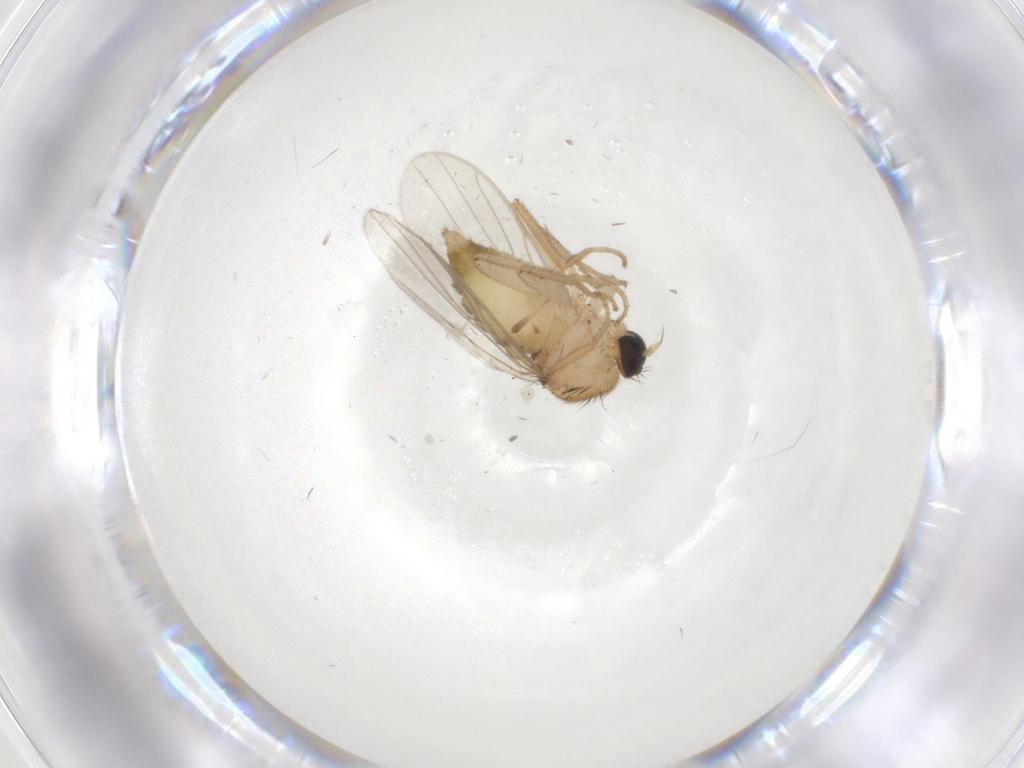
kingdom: Animalia
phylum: Arthropoda
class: Insecta
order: Diptera
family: Hybotidae
